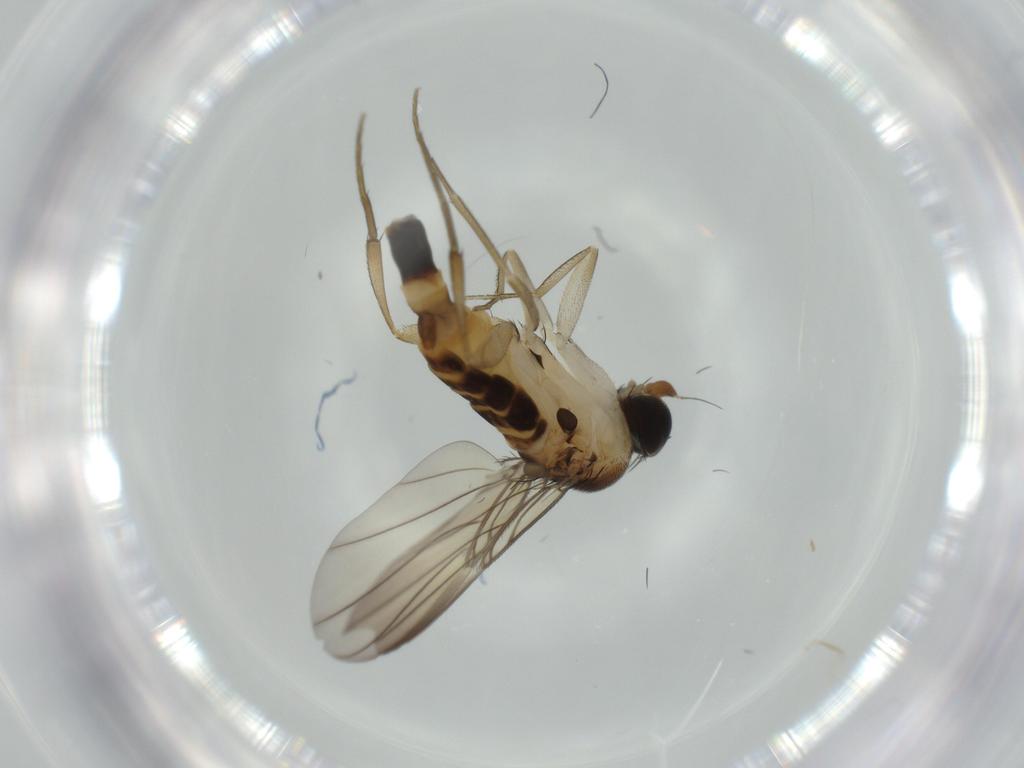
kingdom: Animalia
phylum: Arthropoda
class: Insecta
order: Diptera
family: Phoridae
